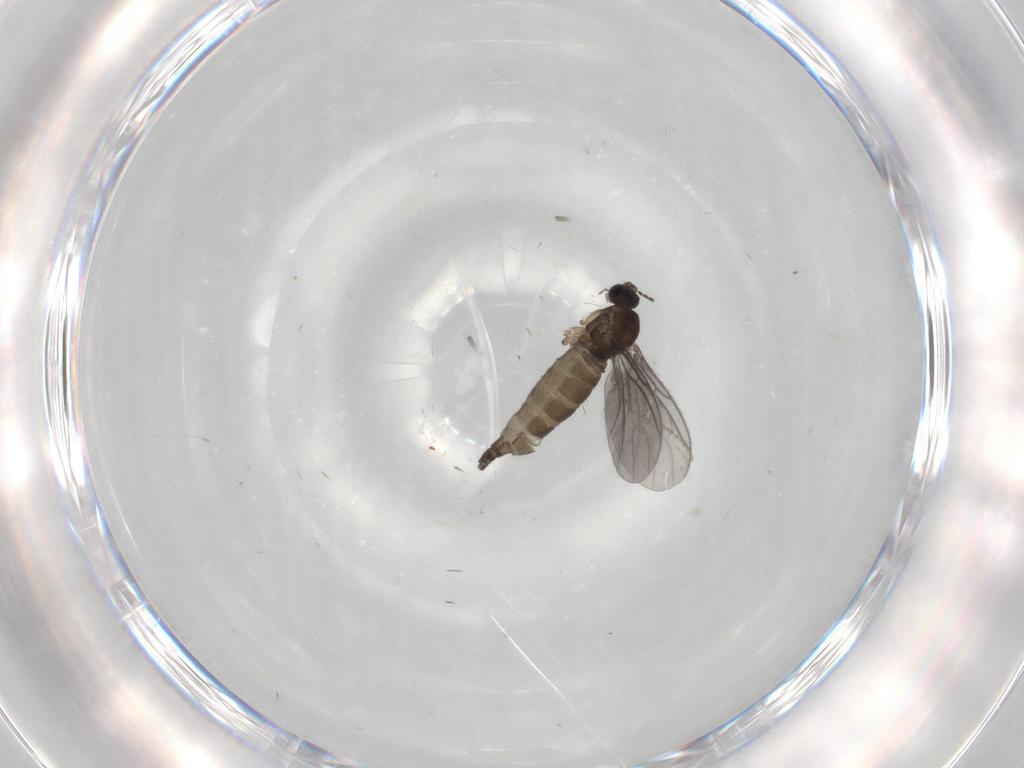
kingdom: Animalia
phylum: Arthropoda
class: Insecta
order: Diptera
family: Sciaridae
